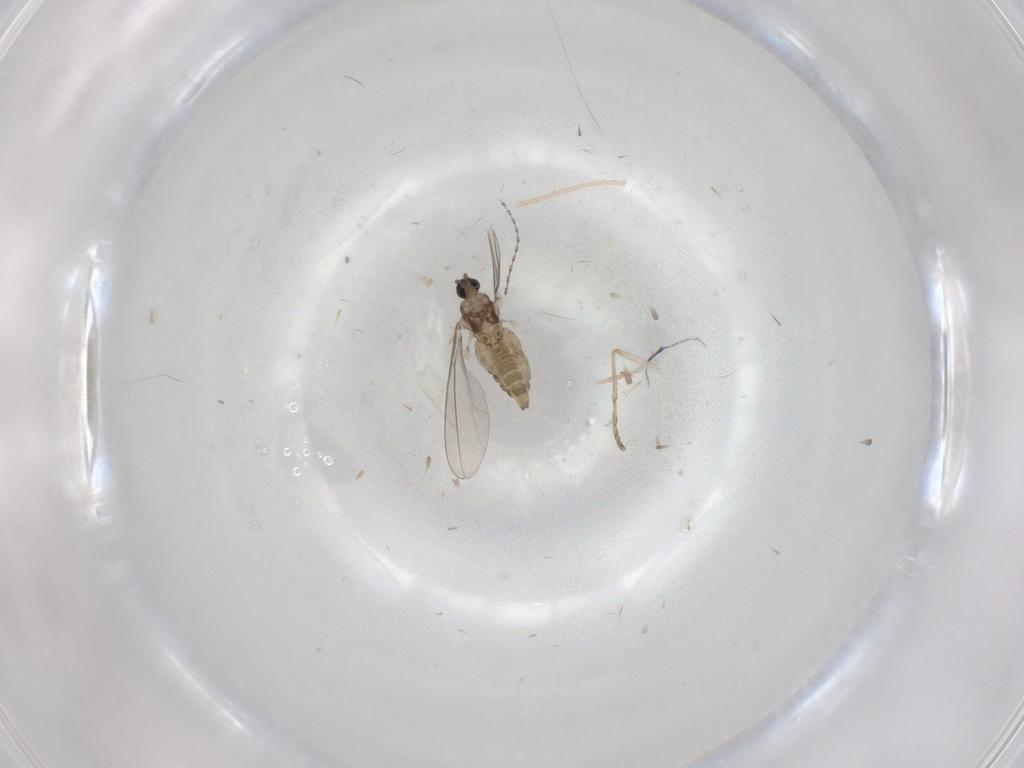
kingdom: Animalia
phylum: Arthropoda
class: Insecta
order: Diptera
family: Cecidomyiidae
